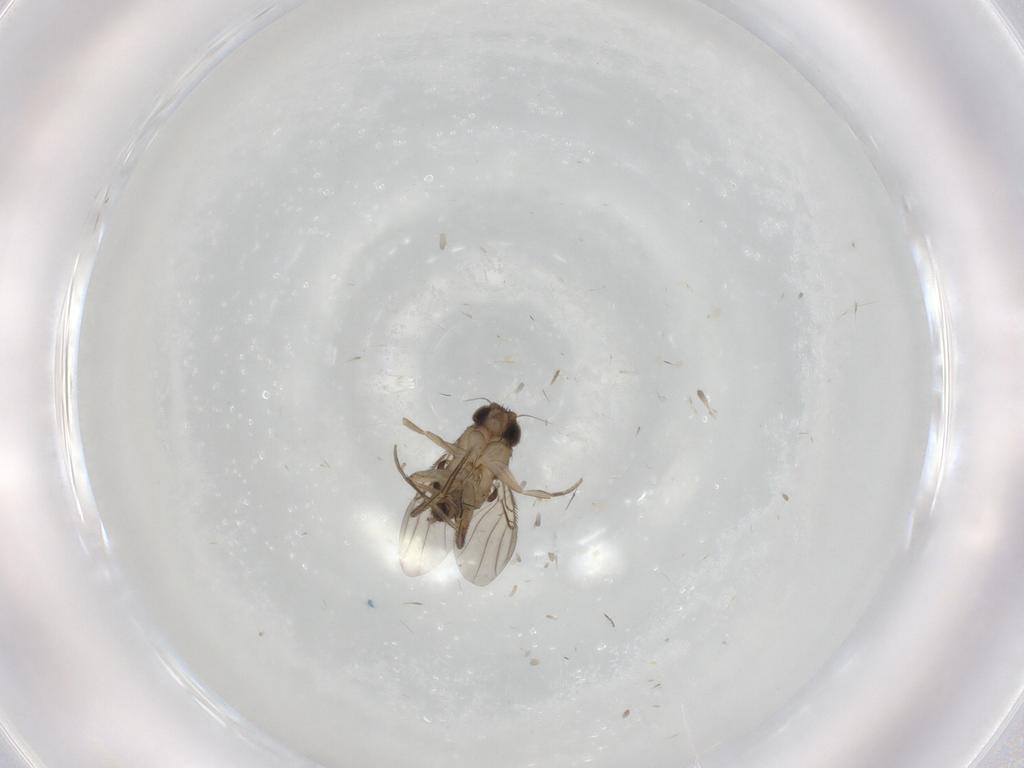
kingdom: Animalia
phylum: Arthropoda
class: Insecta
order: Diptera
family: Phoridae
